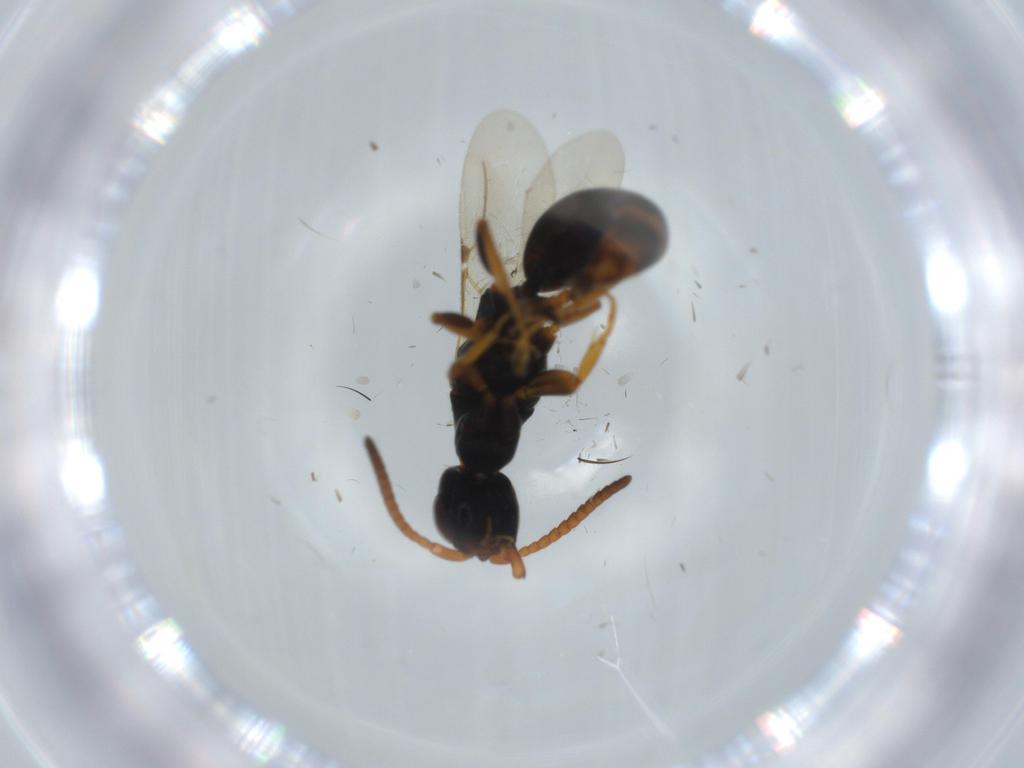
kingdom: Animalia
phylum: Arthropoda
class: Insecta
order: Hymenoptera
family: Bethylidae
